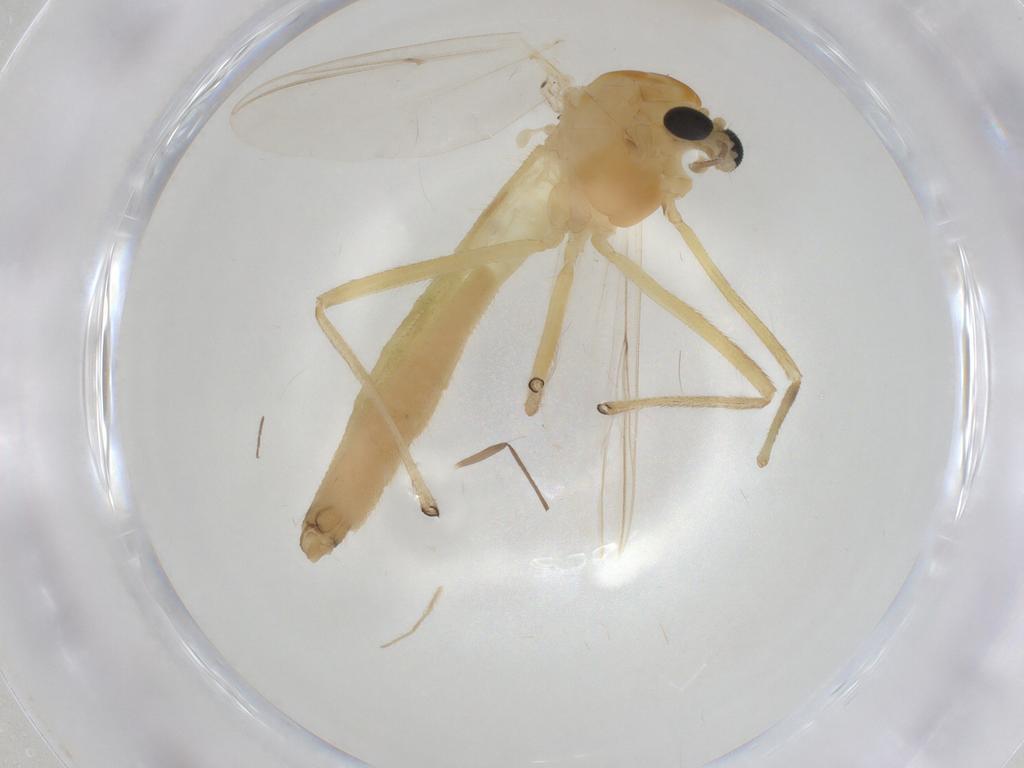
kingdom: Animalia
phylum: Arthropoda
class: Insecta
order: Diptera
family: Chironomidae
